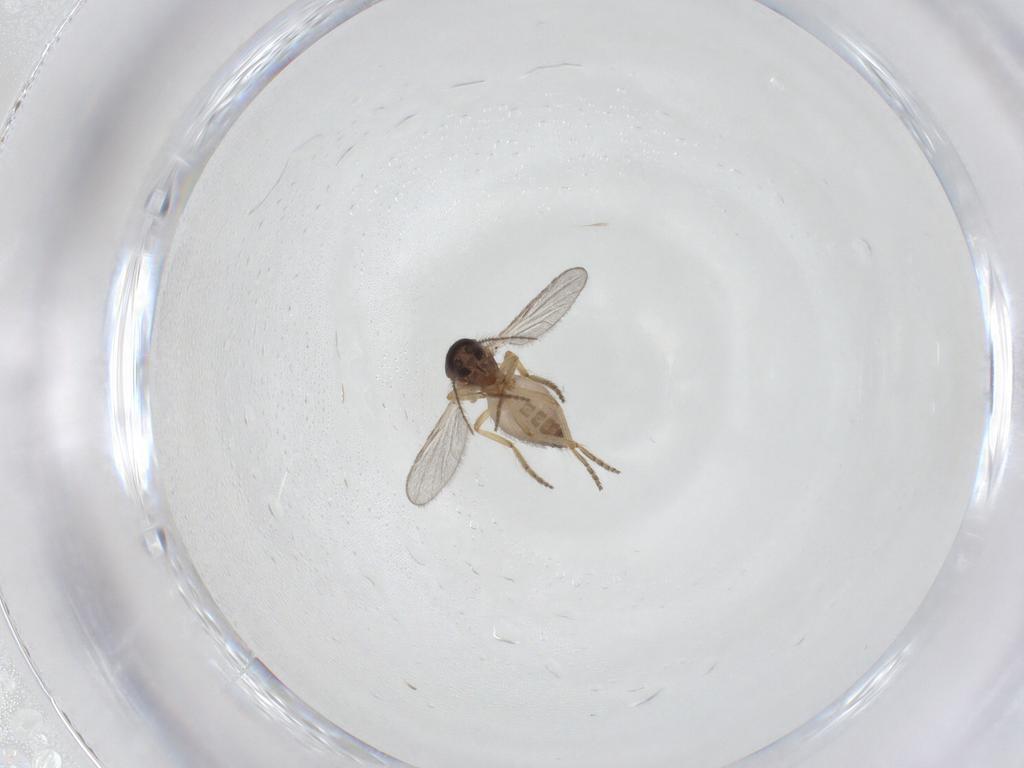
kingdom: Animalia
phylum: Arthropoda
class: Insecta
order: Diptera
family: Ceratopogonidae
